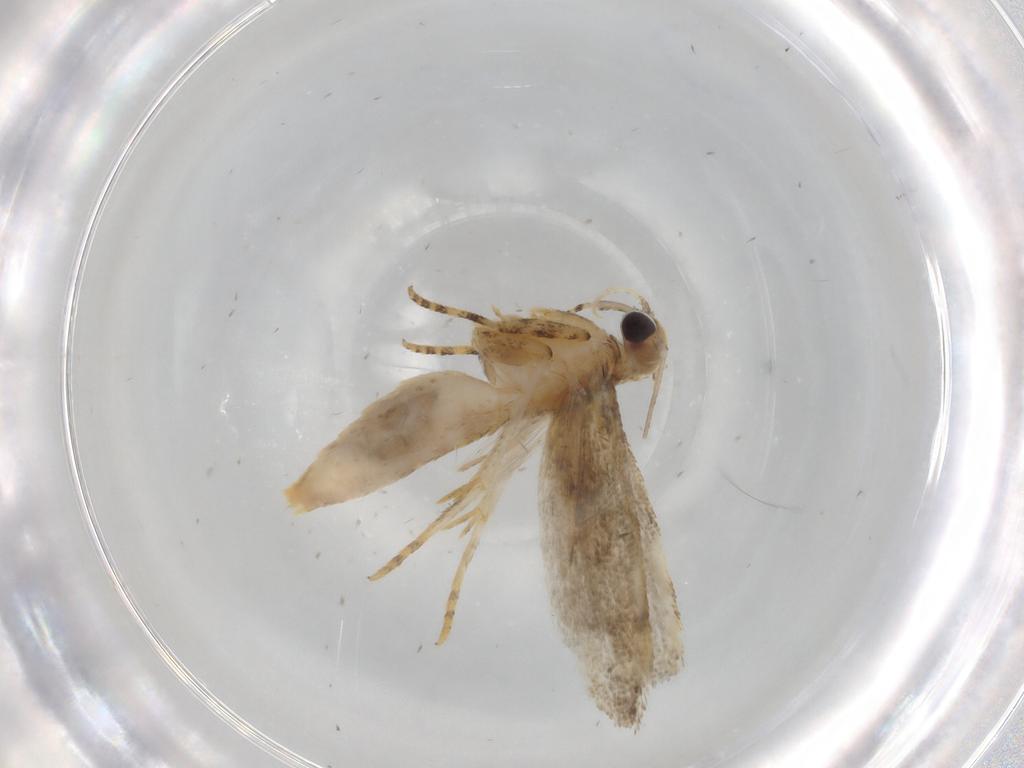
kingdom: Animalia
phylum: Arthropoda
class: Insecta
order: Lepidoptera
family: Gelechiidae
